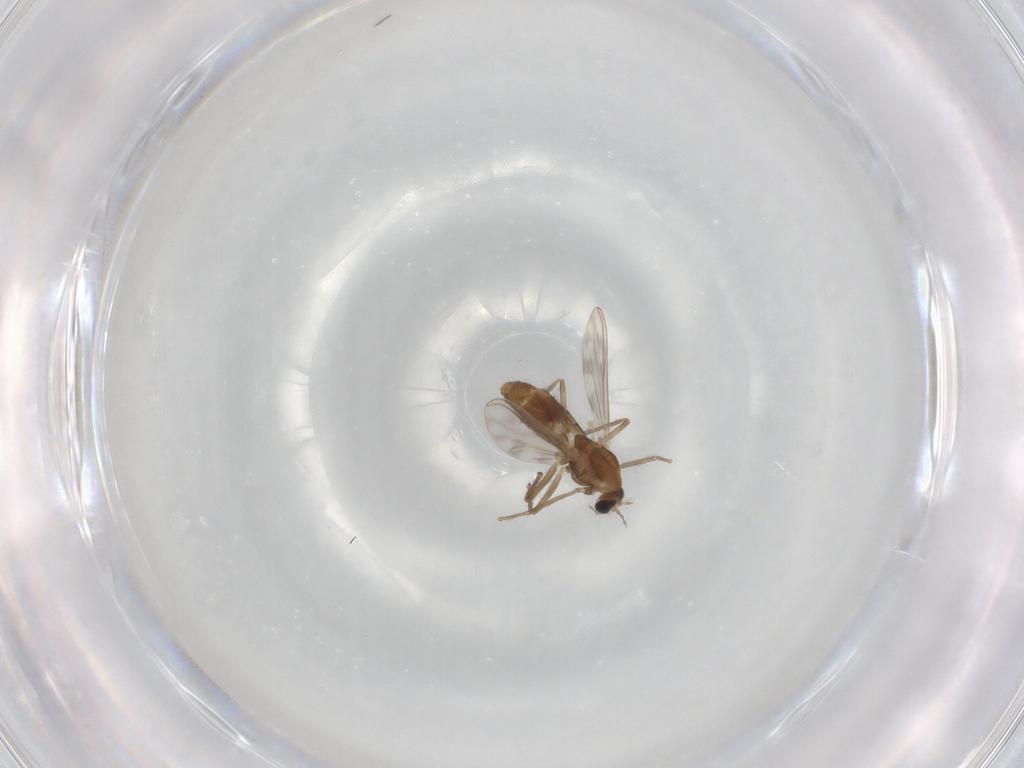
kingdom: Animalia
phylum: Arthropoda
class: Insecta
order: Diptera
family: Chironomidae
